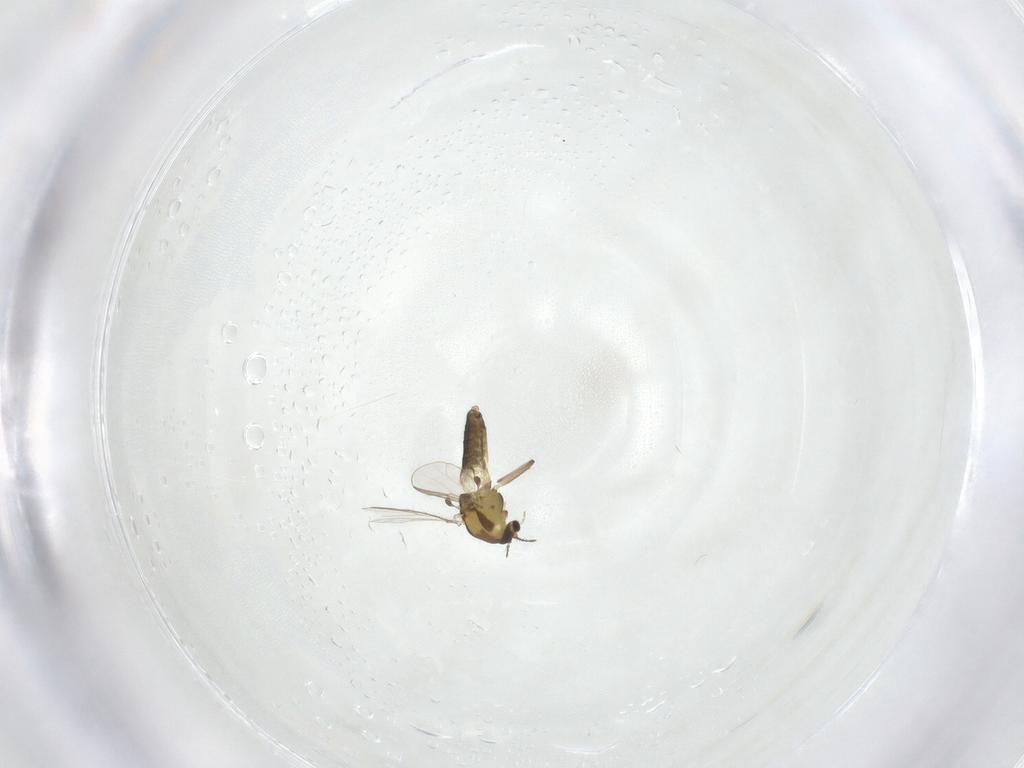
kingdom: Animalia
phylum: Arthropoda
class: Insecta
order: Diptera
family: Chironomidae
